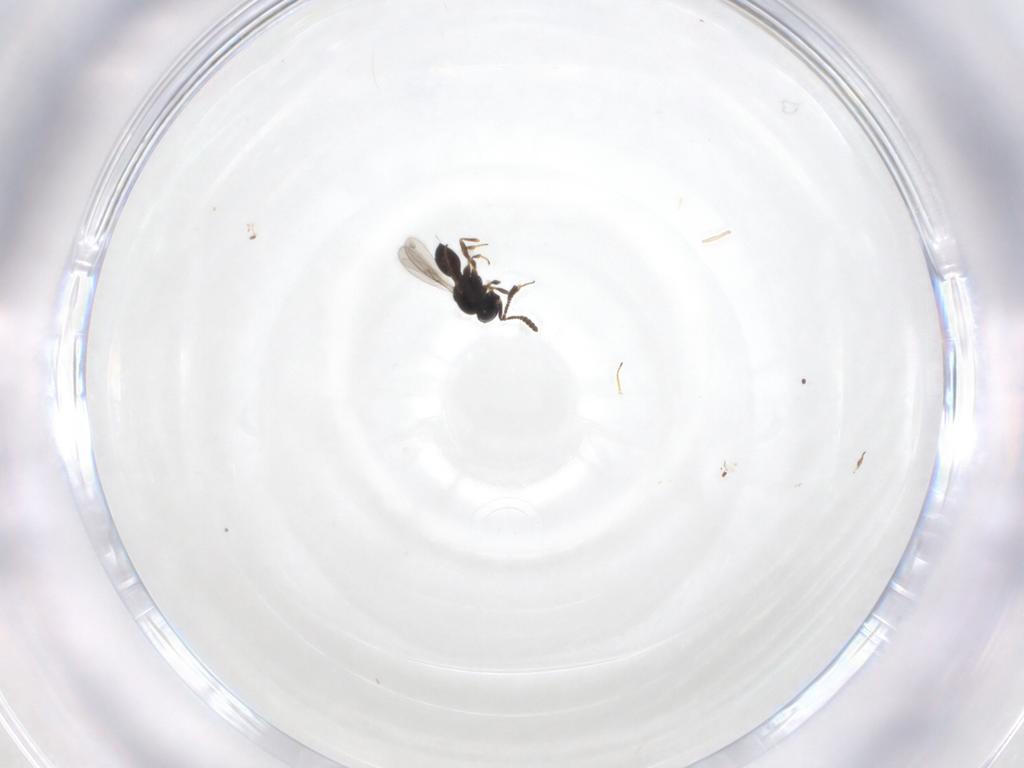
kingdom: Animalia
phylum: Arthropoda
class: Insecta
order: Hymenoptera
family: Scelionidae
